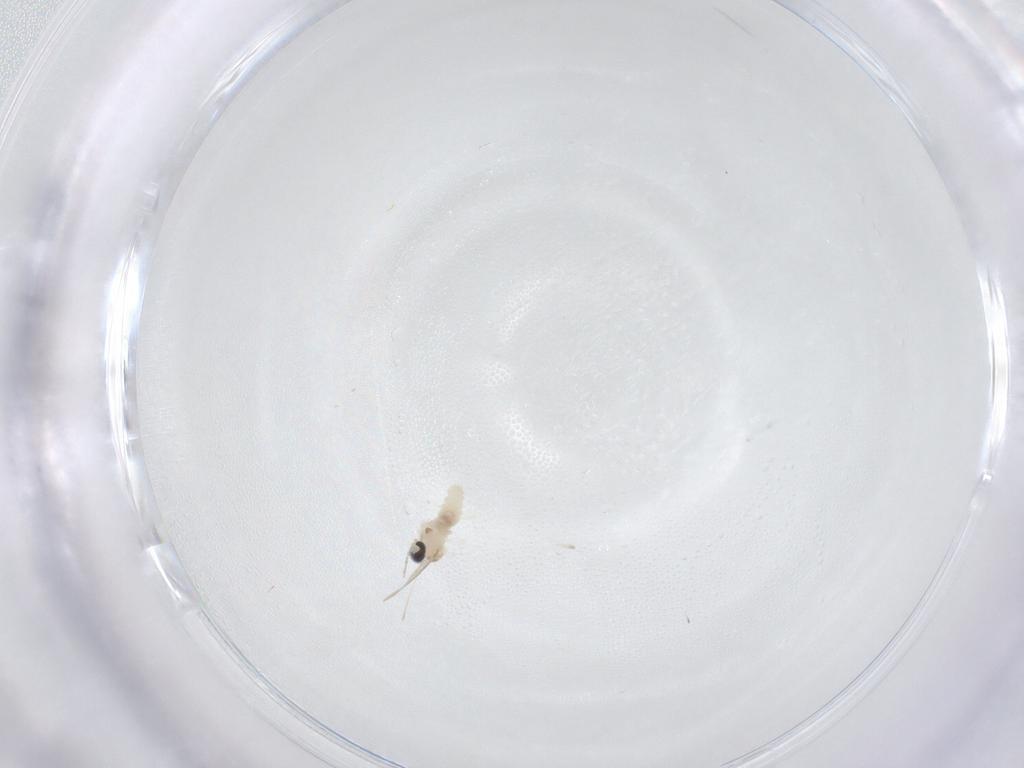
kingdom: Animalia
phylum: Arthropoda
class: Insecta
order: Diptera
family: Cecidomyiidae
